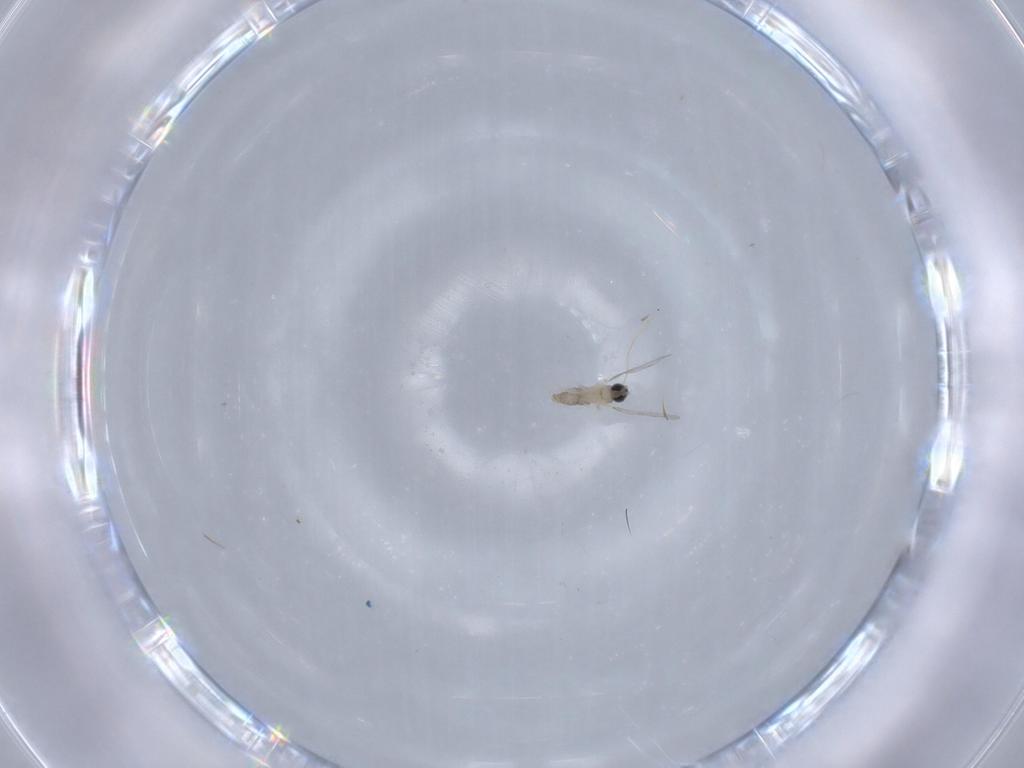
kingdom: Animalia
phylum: Arthropoda
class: Insecta
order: Diptera
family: Cecidomyiidae
